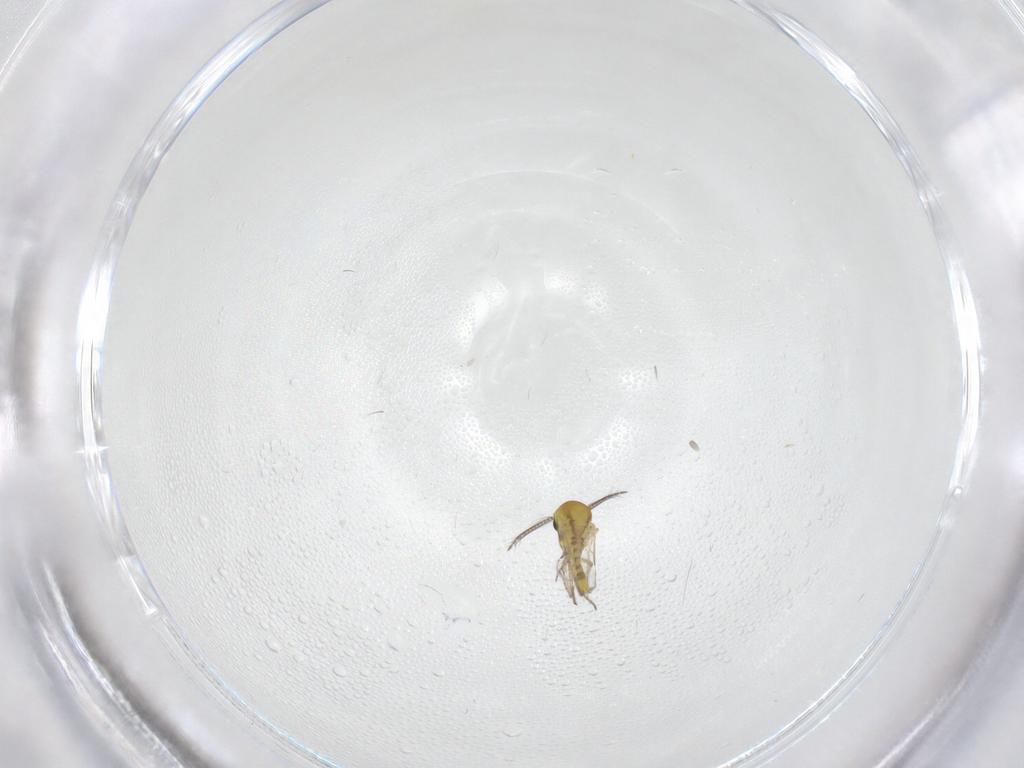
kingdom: Animalia
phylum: Arthropoda
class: Insecta
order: Diptera
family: Ceratopogonidae
